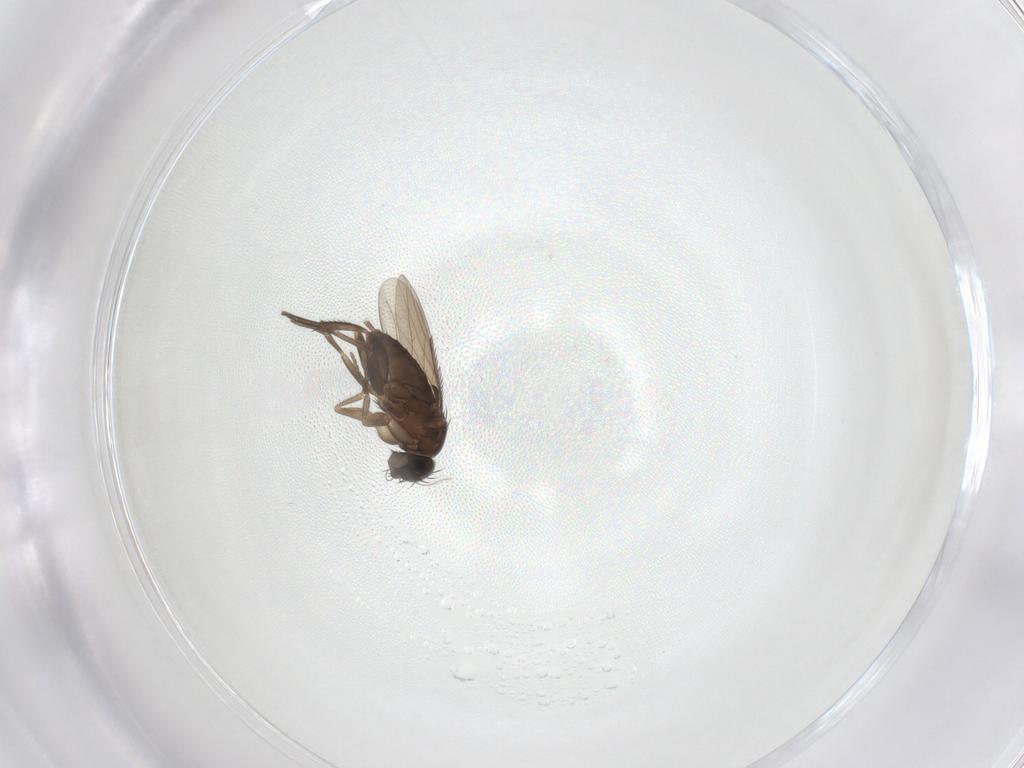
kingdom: Animalia
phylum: Arthropoda
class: Insecta
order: Diptera
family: Phoridae
